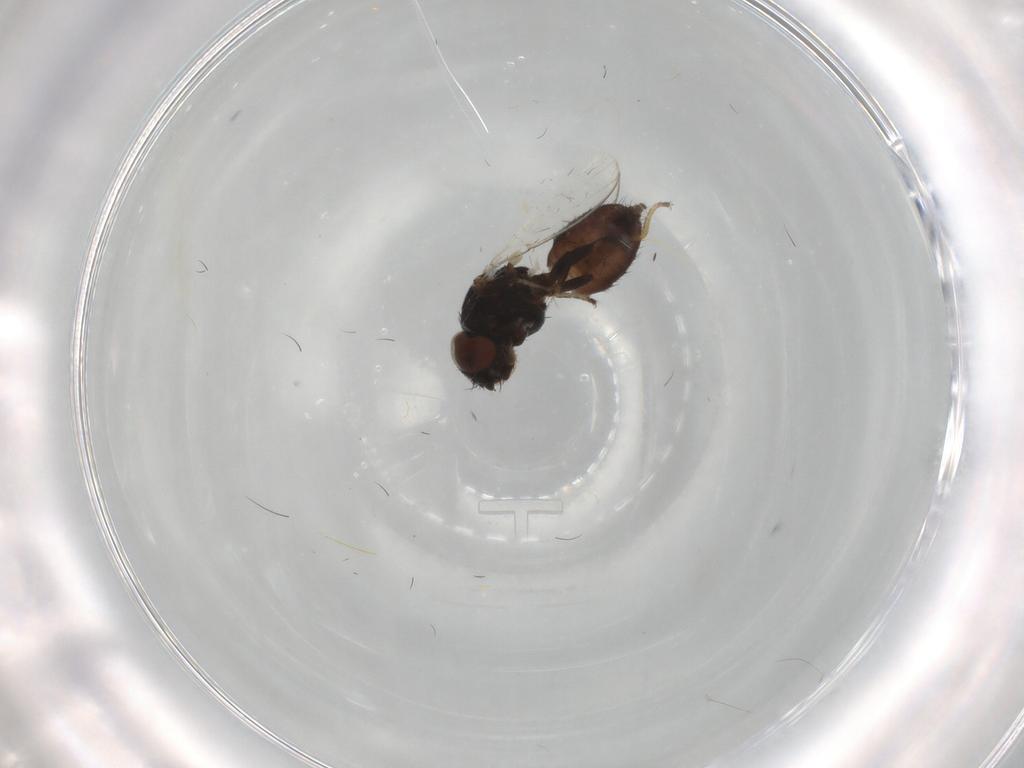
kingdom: Animalia
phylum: Arthropoda
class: Insecta
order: Diptera
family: Milichiidae
